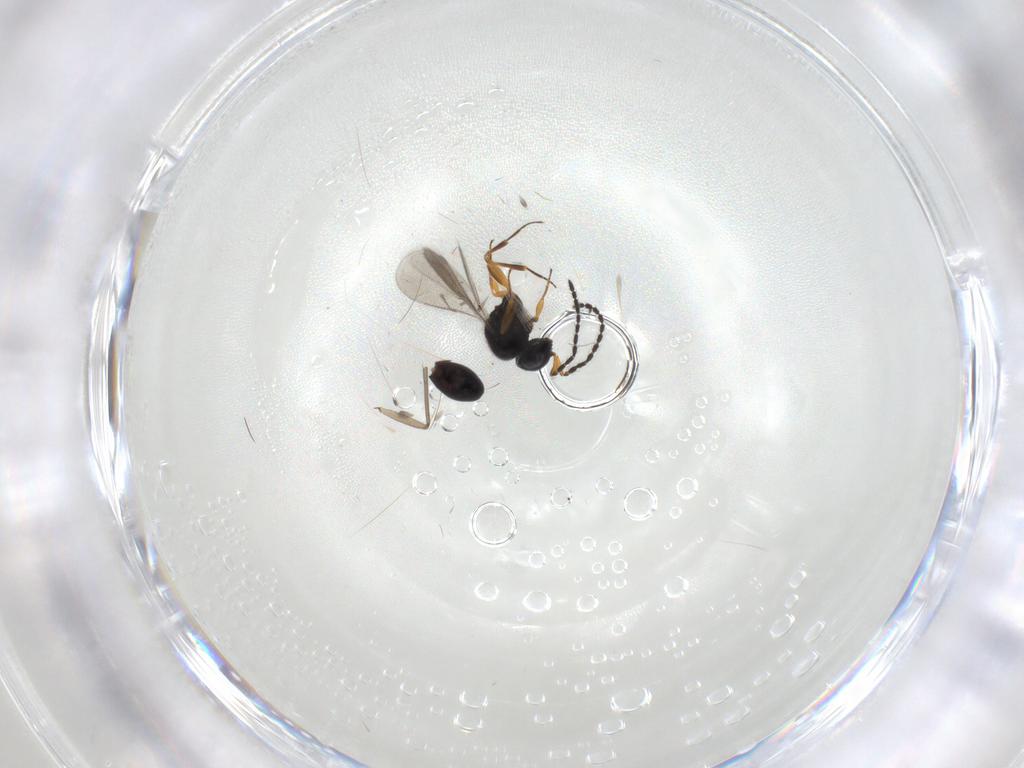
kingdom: Animalia
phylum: Arthropoda
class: Insecta
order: Hymenoptera
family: Scelionidae
